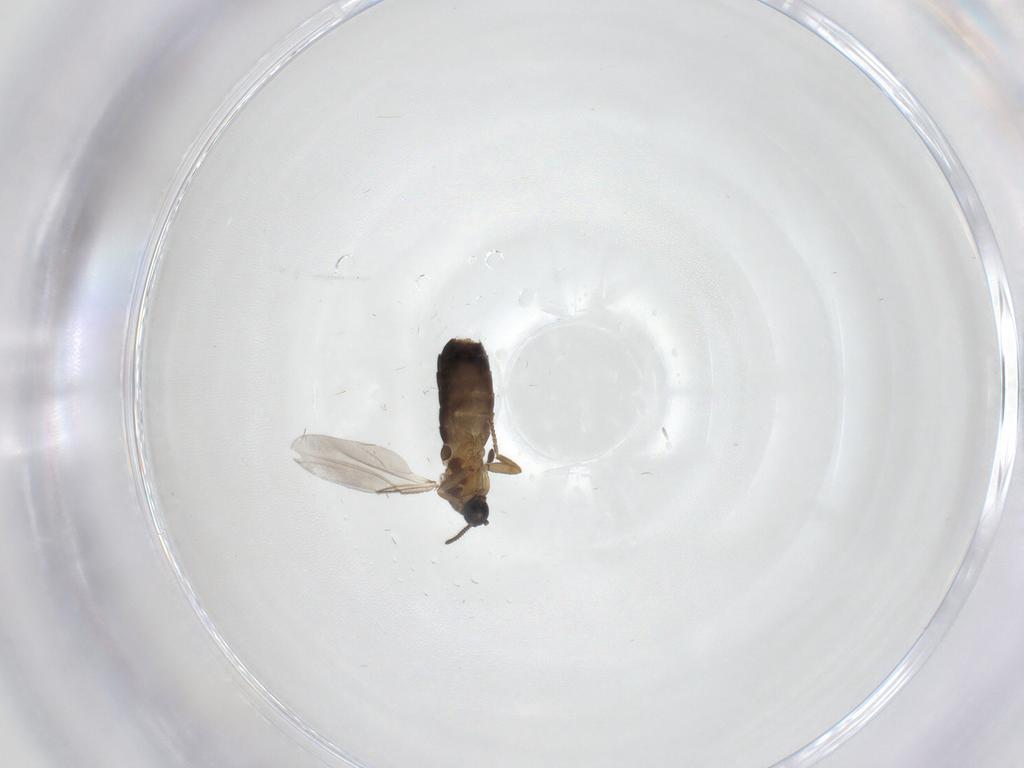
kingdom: Animalia
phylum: Arthropoda
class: Insecta
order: Diptera
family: Scatopsidae
